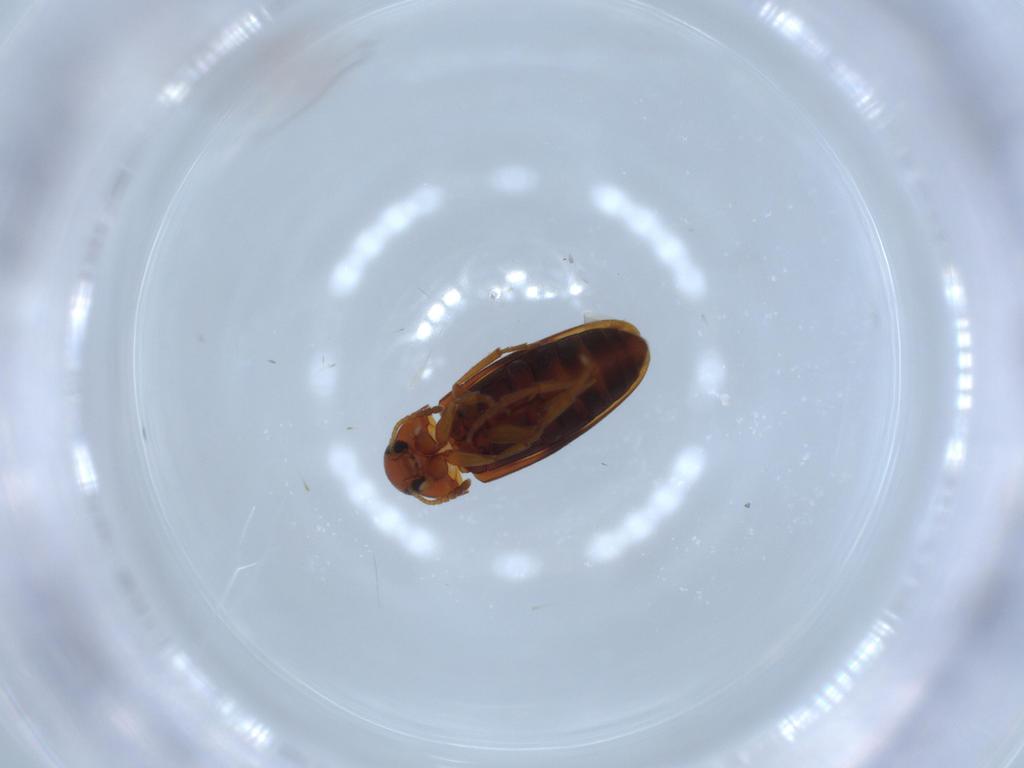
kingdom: Animalia
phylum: Arthropoda
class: Insecta
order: Coleoptera
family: Scraptiidae
